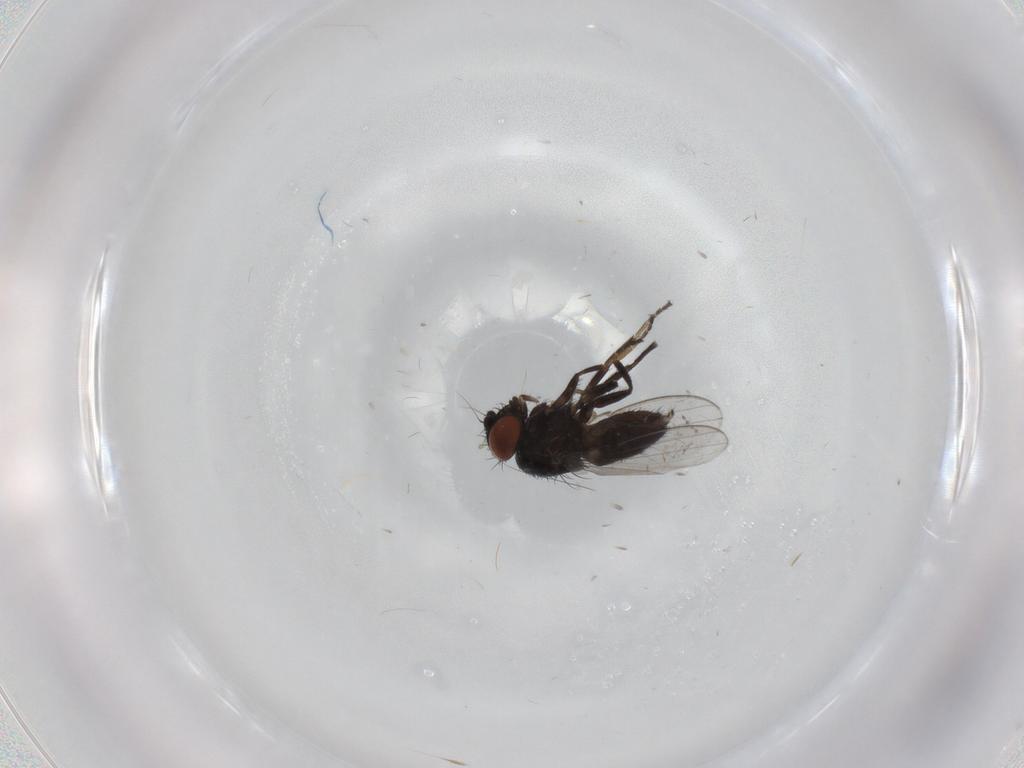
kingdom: Animalia
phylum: Arthropoda
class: Insecta
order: Diptera
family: Milichiidae
